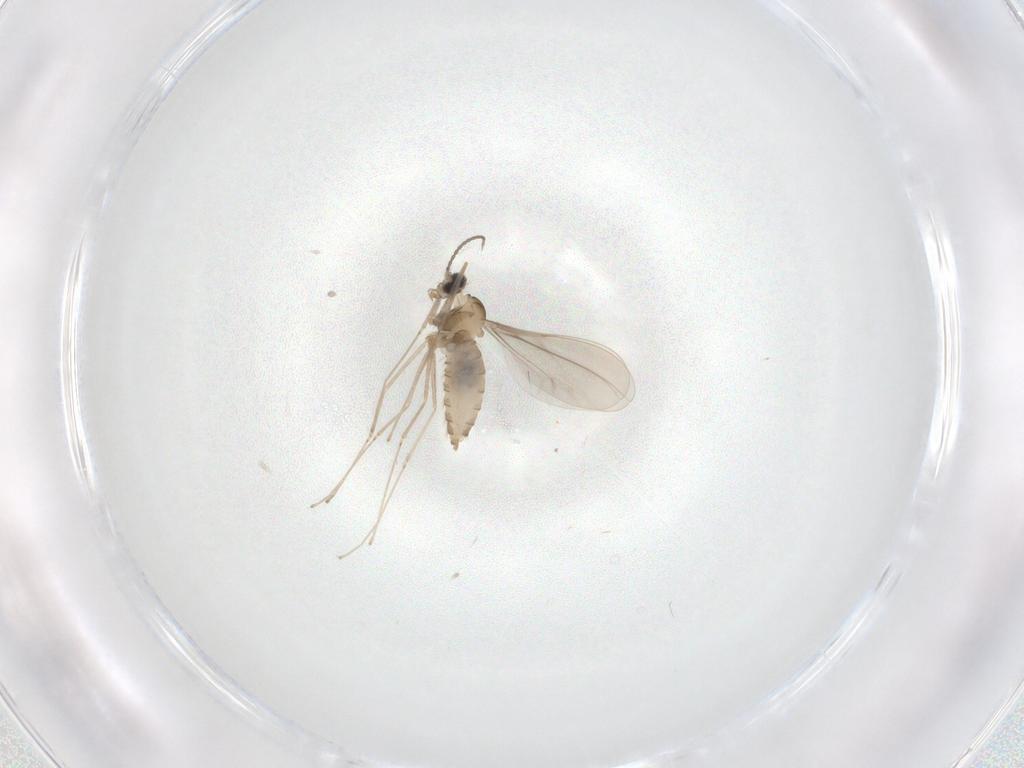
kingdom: Animalia
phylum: Arthropoda
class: Insecta
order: Diptera
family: Cecidomyiidae
